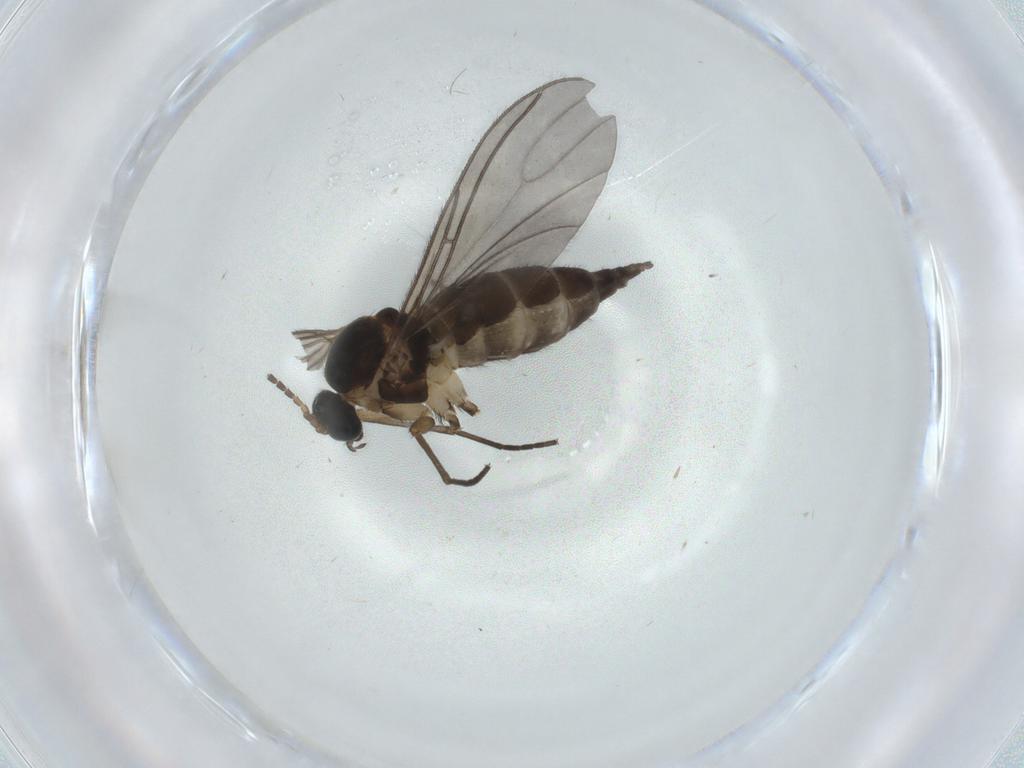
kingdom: Animalia
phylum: Arthropoda
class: Insecta
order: Diptera
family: Sciaridae
